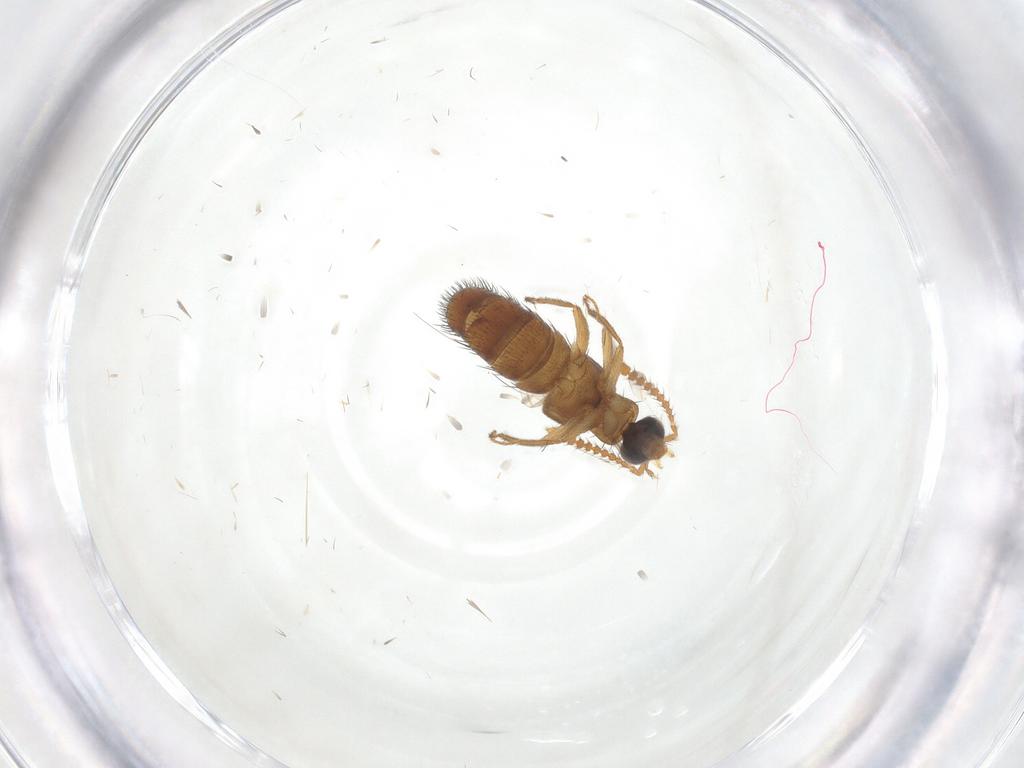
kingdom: Animalia
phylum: Arthropoda
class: Insecta
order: Coleoptera
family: Staphylinidae
